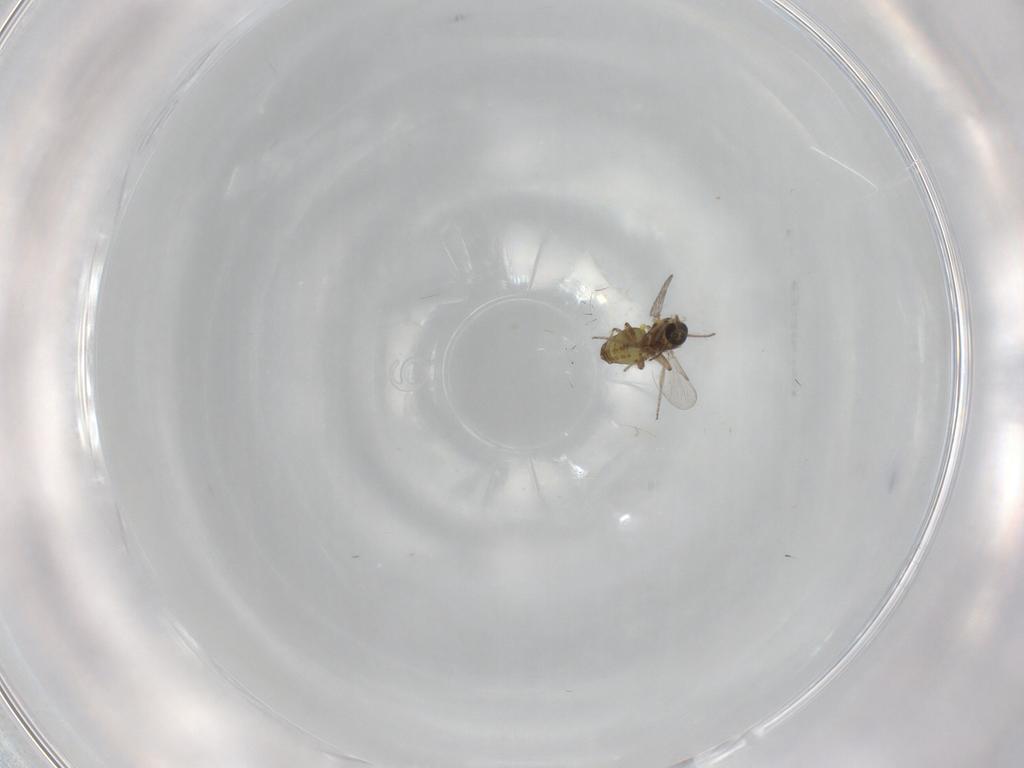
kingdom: Animalia
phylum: Arthropoda
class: Insecta
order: Diptera
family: Ceratopogonidae
